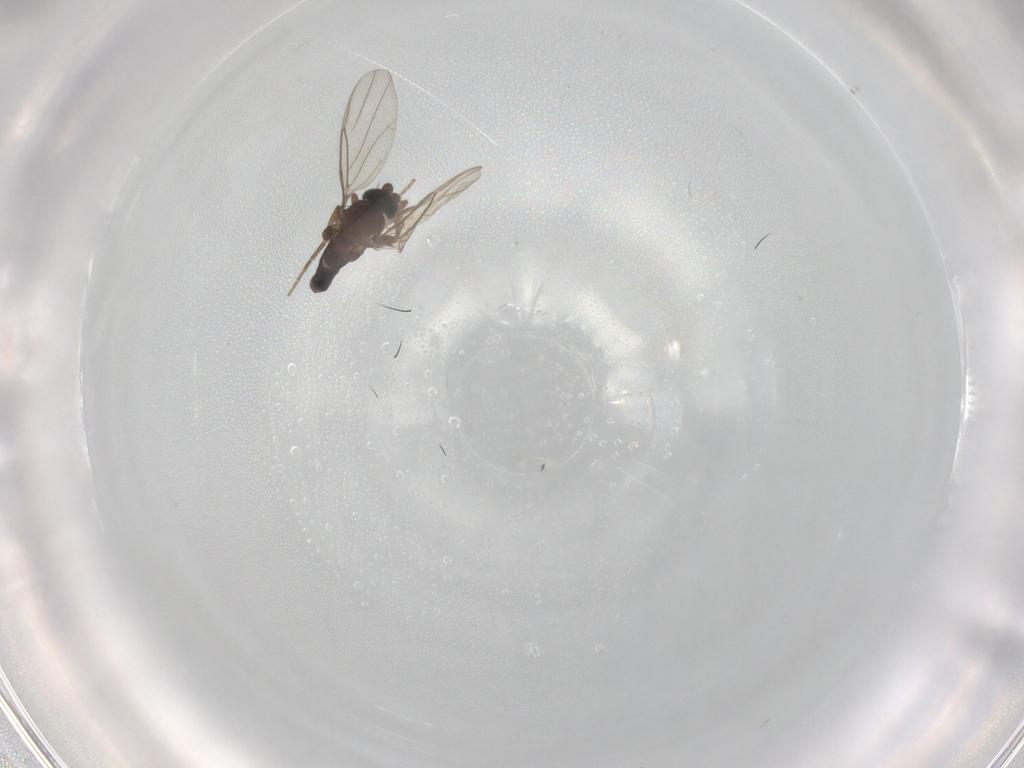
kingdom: Animalia
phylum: Arthropoda
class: Insecta
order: Diptera
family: Phoridae
